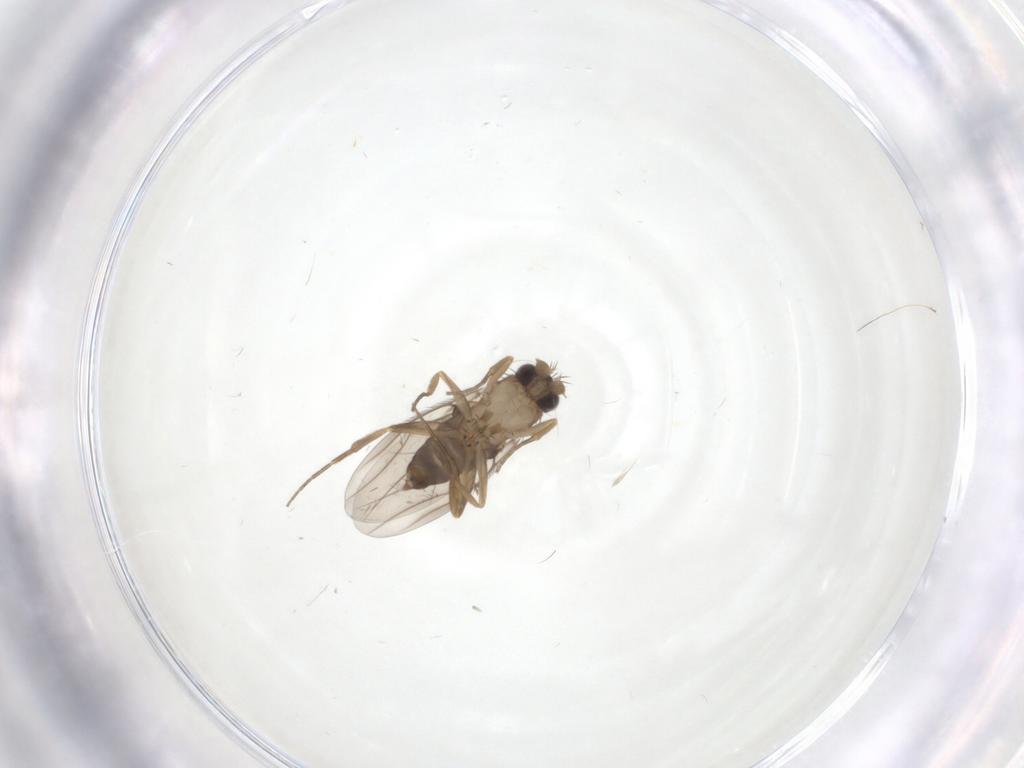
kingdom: Animalia
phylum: Arthropoda
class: Insecta
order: Diptera
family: Phoridae
